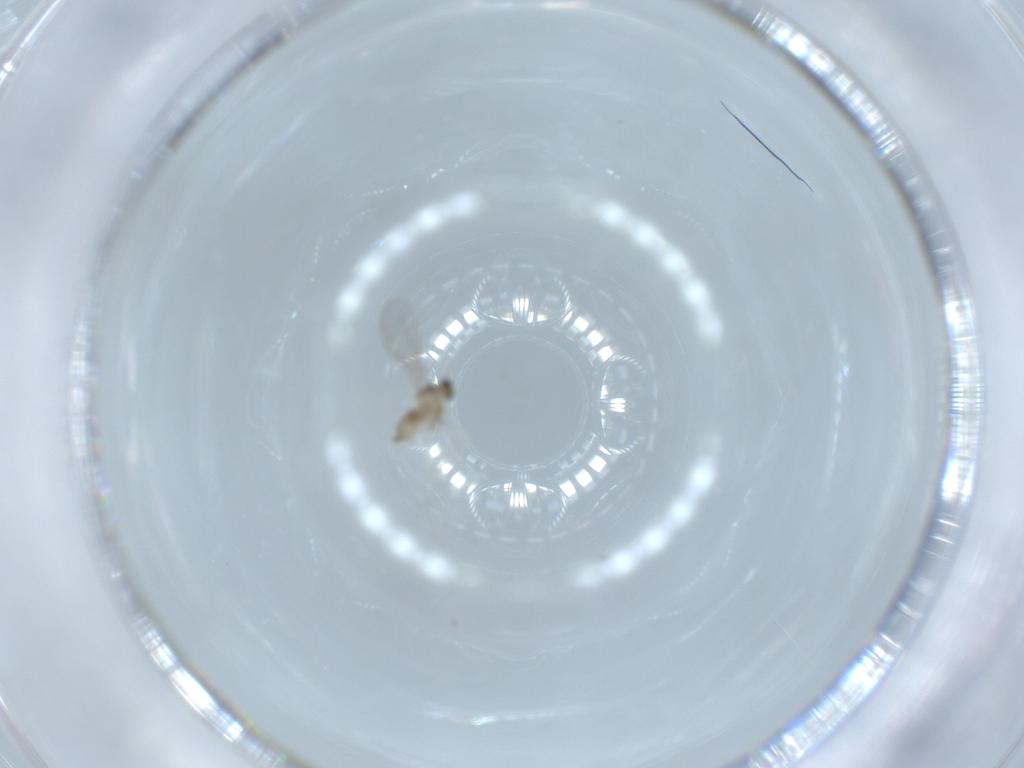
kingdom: Animalia
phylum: Arthropoda
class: Insecta
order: Diptera
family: Cecidomyiidae
